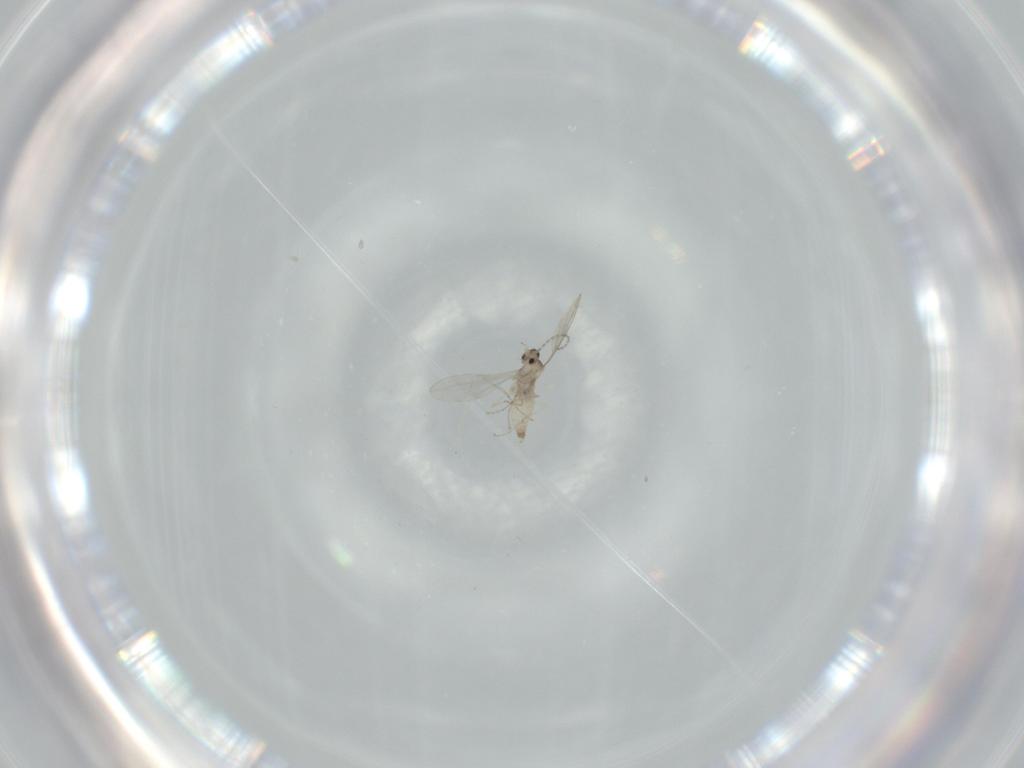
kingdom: Animalia
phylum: Arthropoda
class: Insecta
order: Diptera
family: Cecidomyiidae
